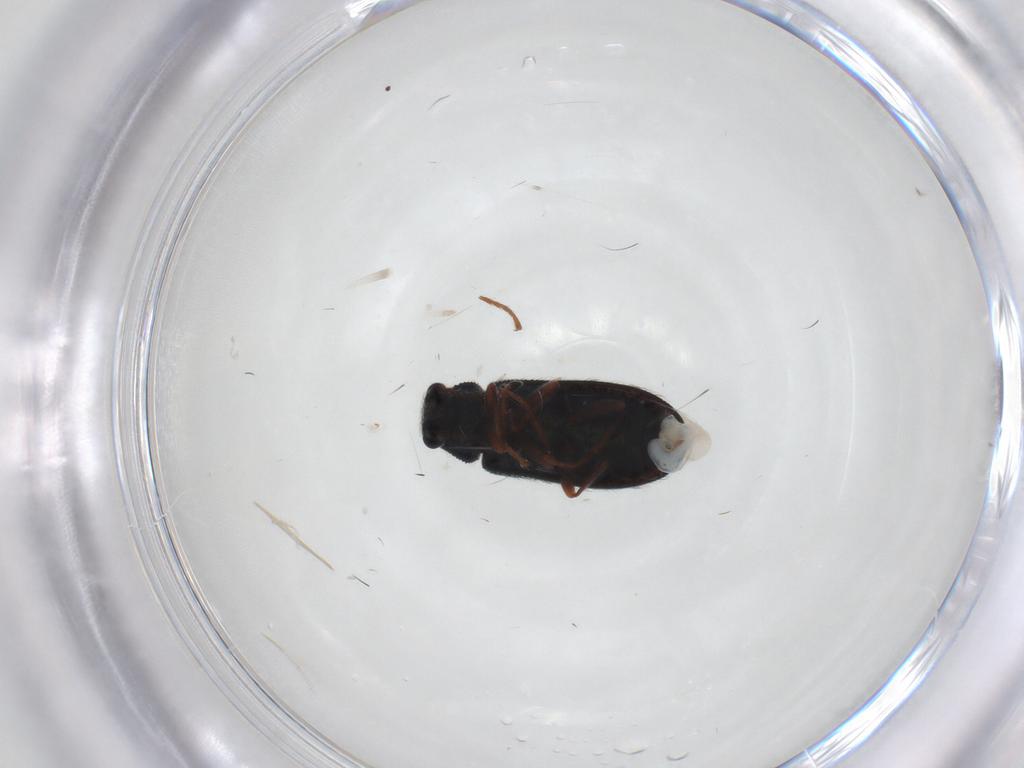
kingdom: Animalia
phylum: Arthropoda
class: Insecta
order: Coleoptera
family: Melyridae
